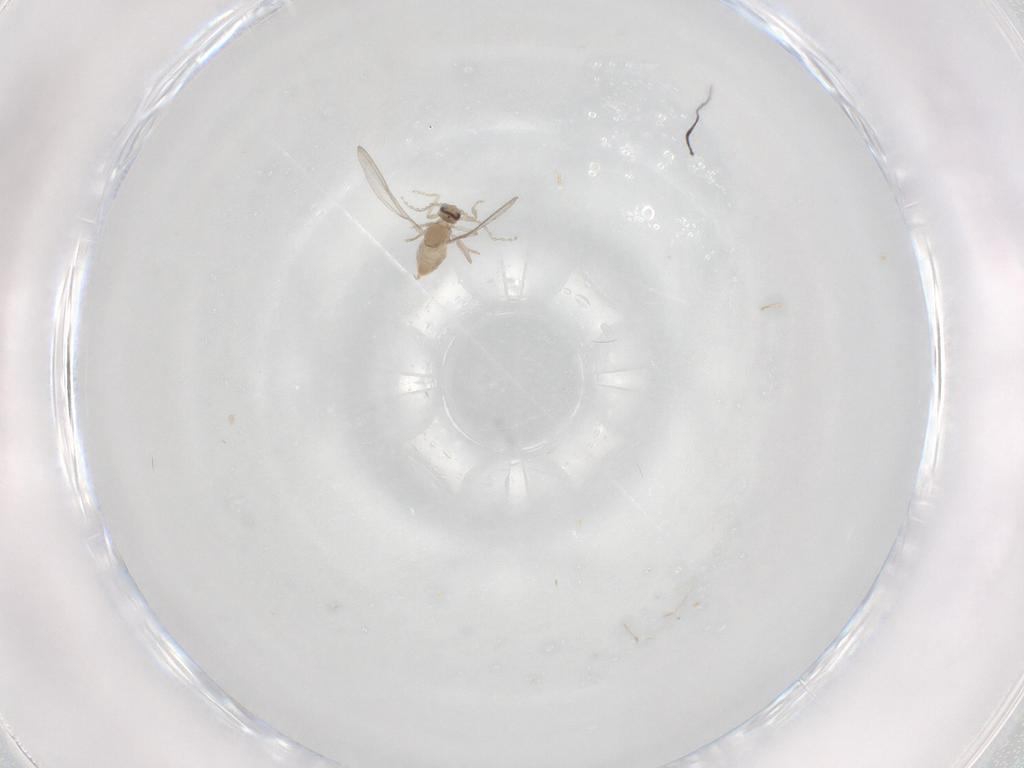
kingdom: Animalia
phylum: Arthropoda
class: Insecta
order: Diptera
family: Cecidomyiidae
